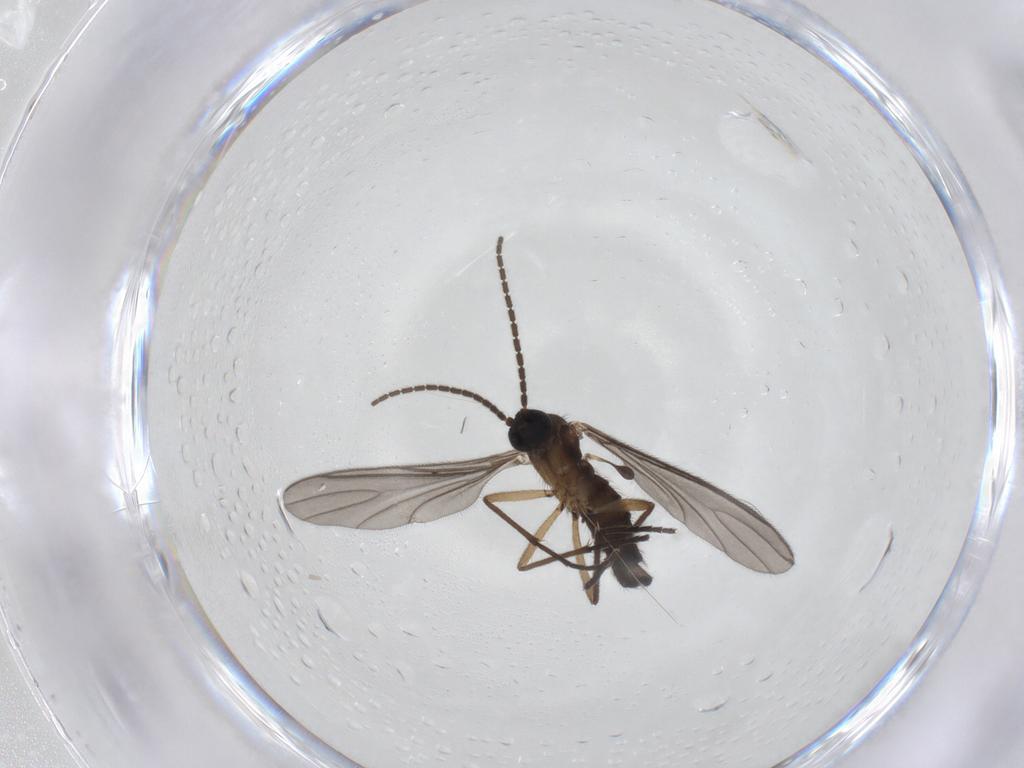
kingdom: Animalia
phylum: Arthropoda
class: Insecta
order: Diptera
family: Sciaridae
